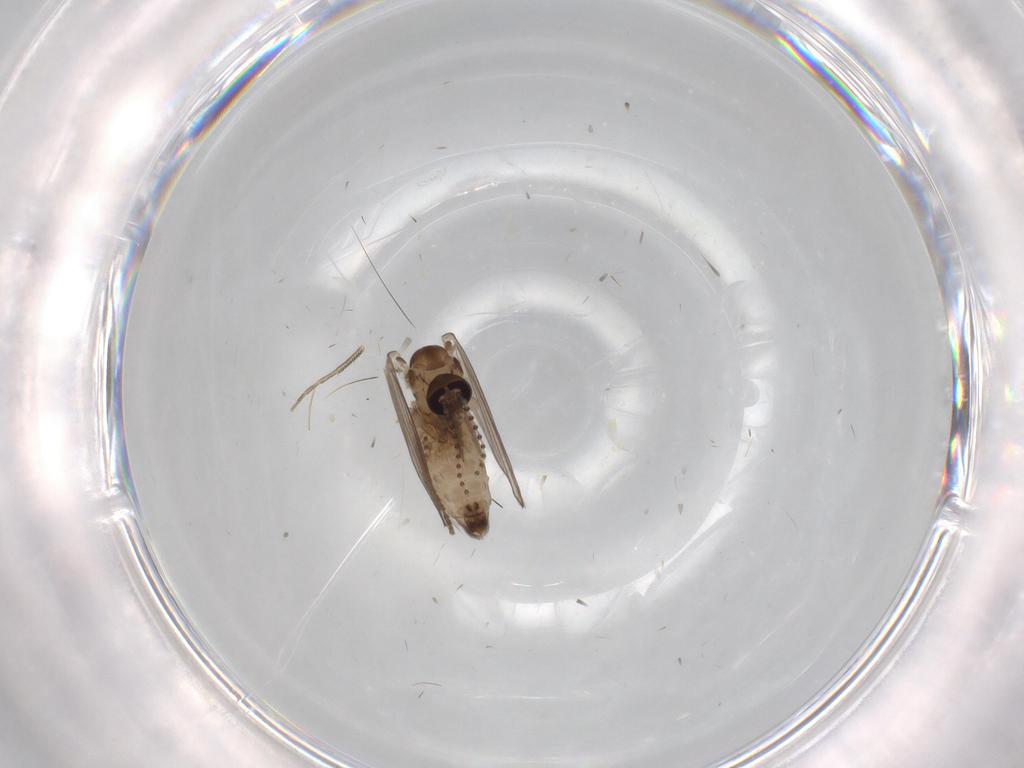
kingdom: Animalia
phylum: Arthropoda
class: Insecta
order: Diptera
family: Psychodidae
